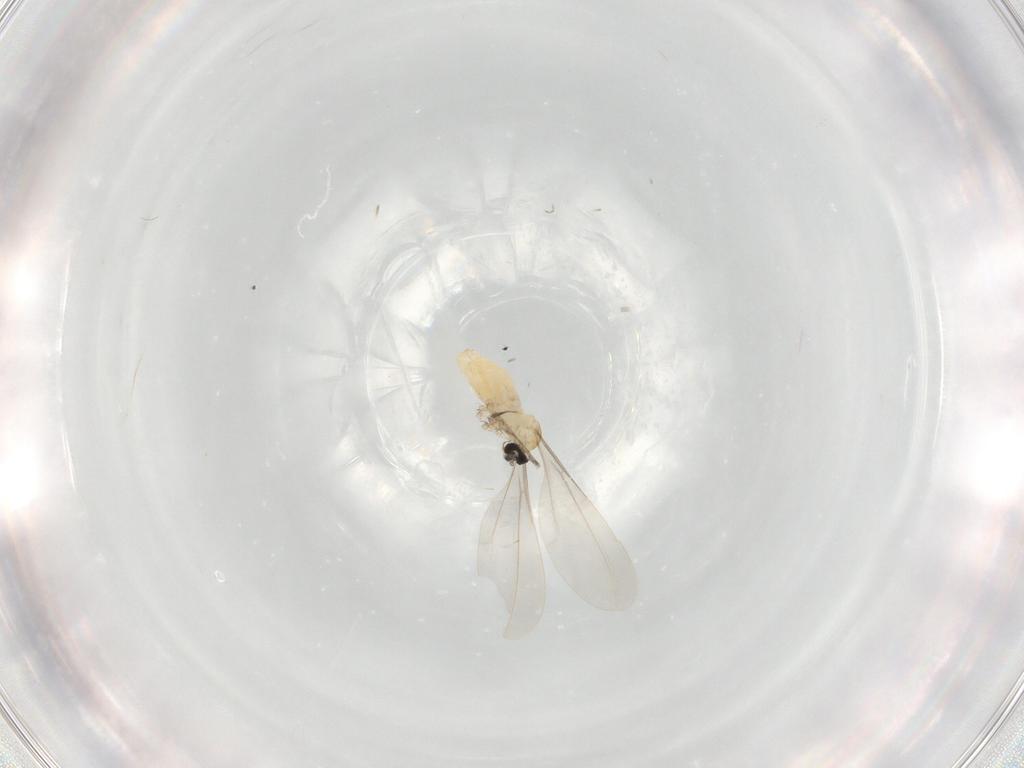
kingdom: Animalia
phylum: Arthropoda
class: Insecta
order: Diptera
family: Cecidomyiidae
